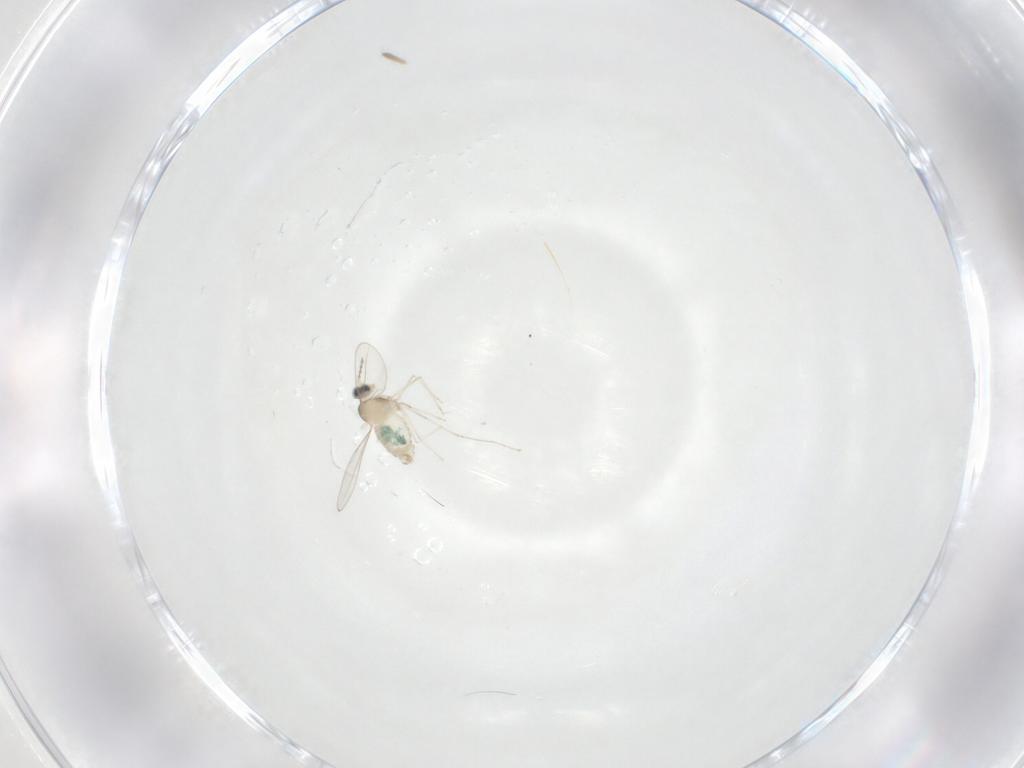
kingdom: Animalia
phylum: Arthropoda
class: Insecta
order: Diptera
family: Cecidomyiidae
